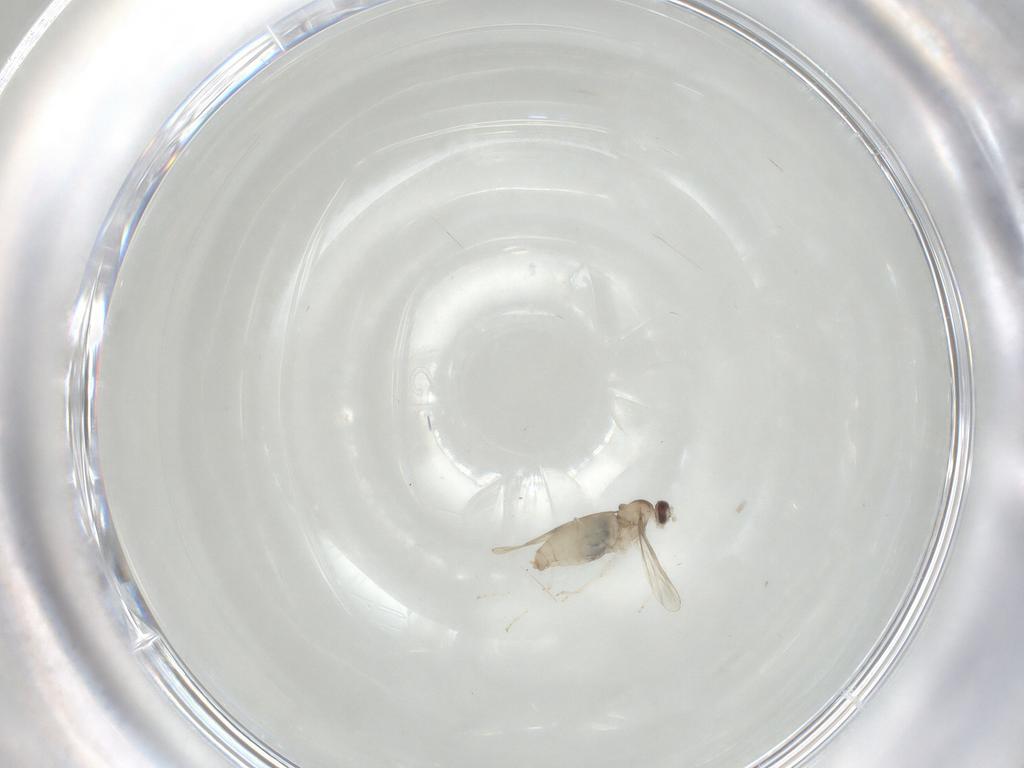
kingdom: Animalia
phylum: Arthropoda
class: Insecta
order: Diptera
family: Cecidomyiidae
